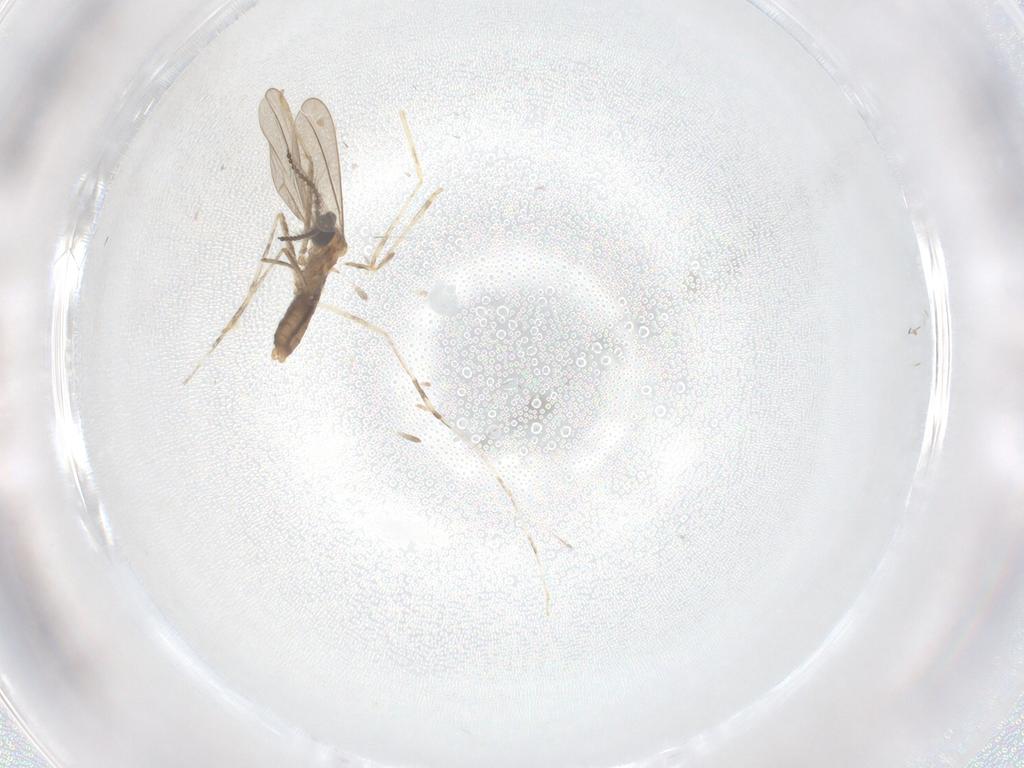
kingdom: Animalia
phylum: Arthropoda
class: Insecta
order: Diptera
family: Cecidomyiidae
